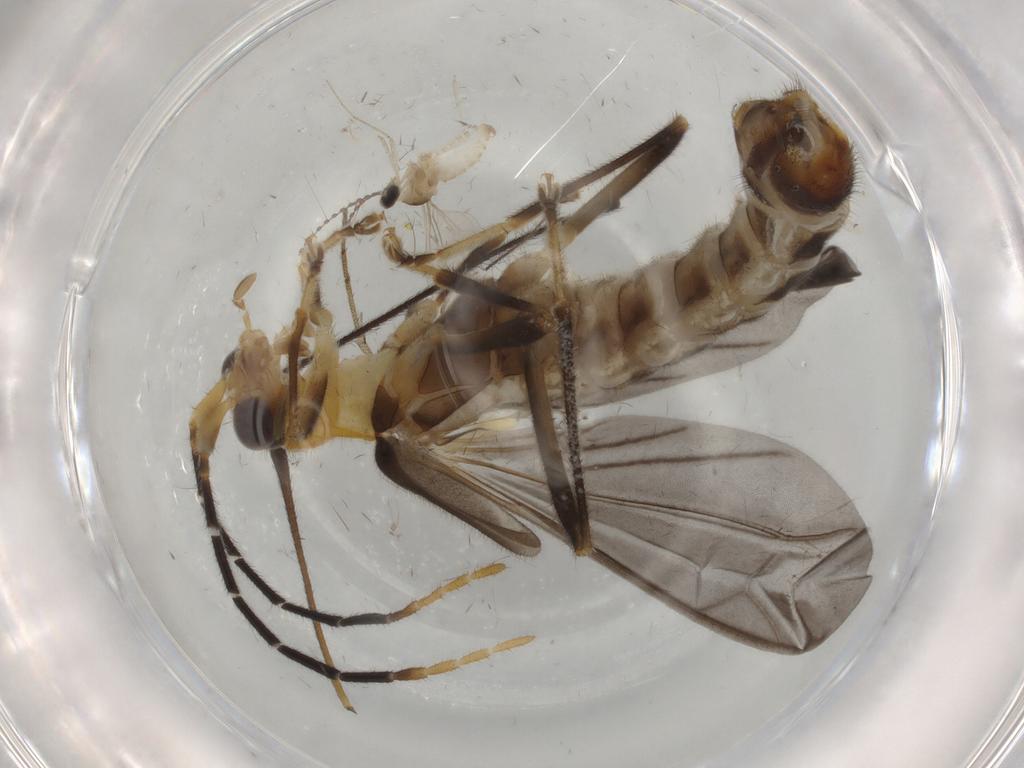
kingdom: Animalia
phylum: Arthropoda
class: Insecta
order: Coleoptera
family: Cantharidae
